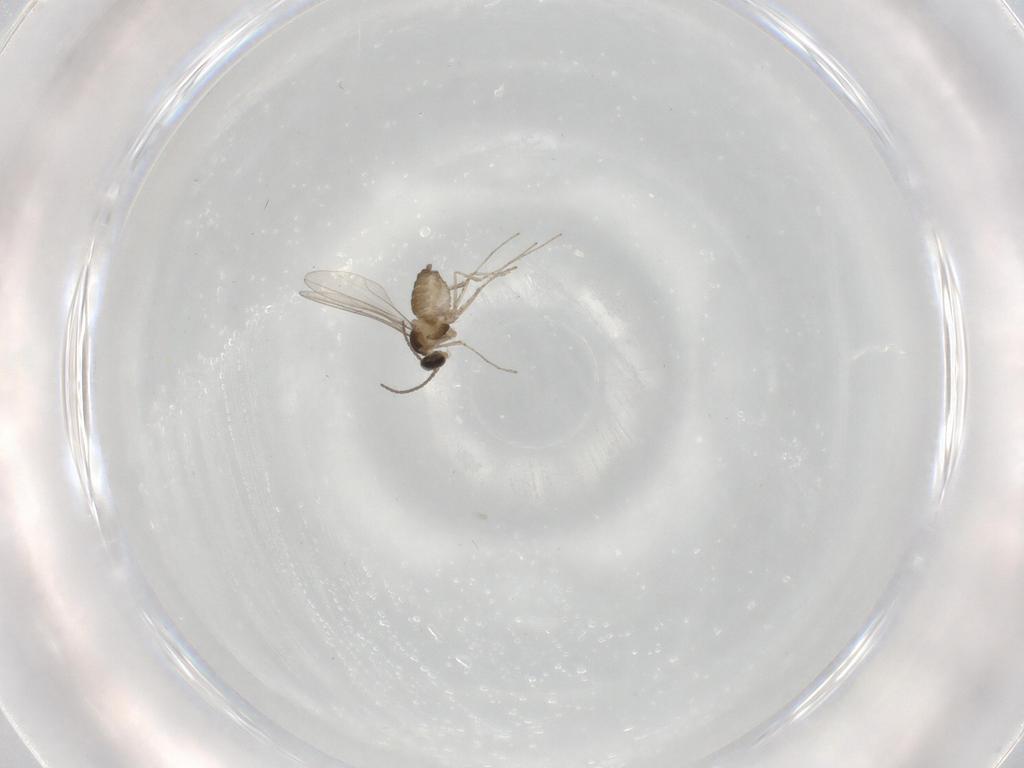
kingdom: Animalia
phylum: Arthropoda
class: Insecta
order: Diptera
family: Cecidomyiidae
